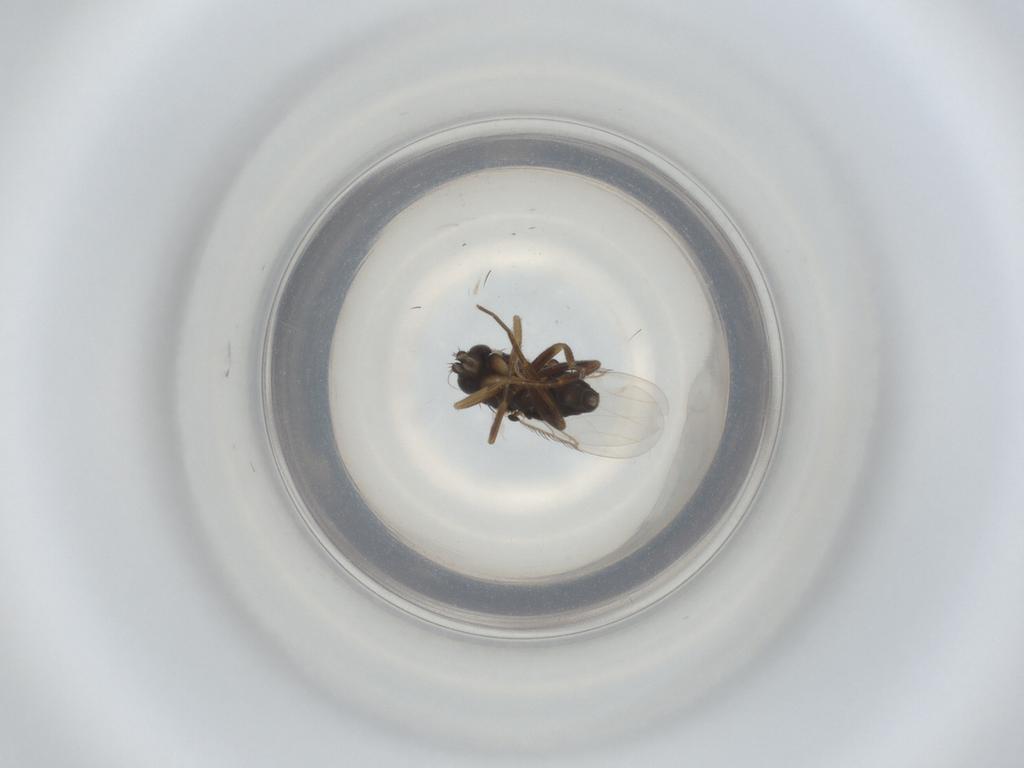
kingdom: Animalia
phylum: Arthropoda
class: Insecta
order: Diptera
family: Phoridae
